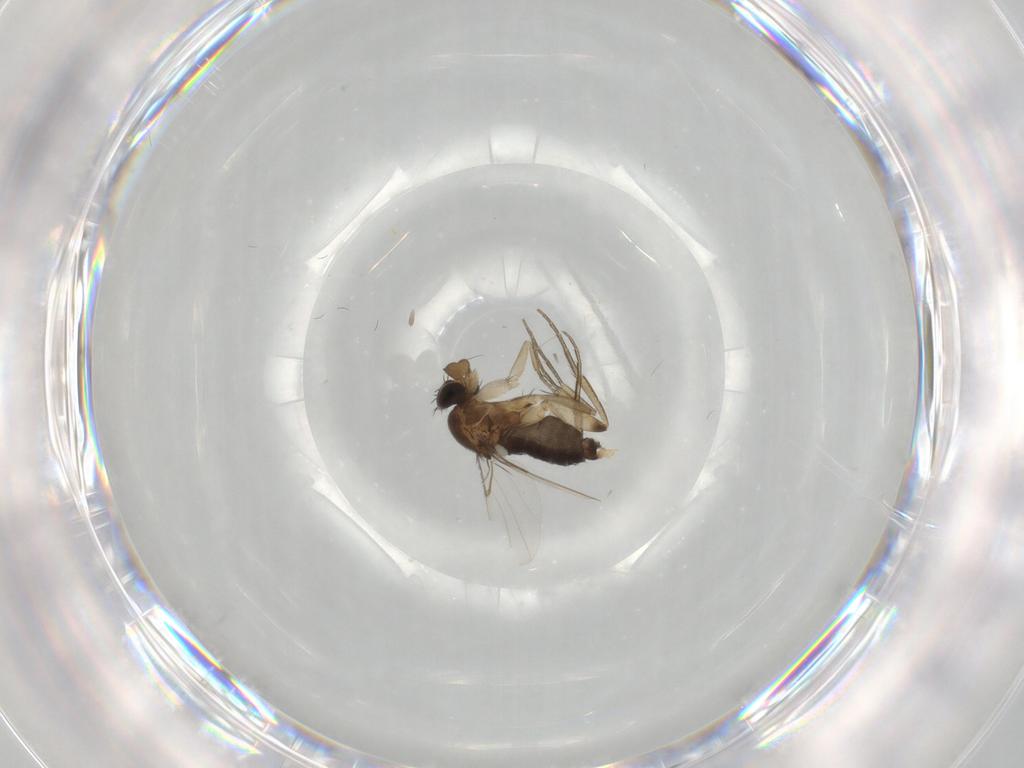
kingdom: Animalia
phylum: Arthropoda
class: Insecta
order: Diptera
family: Phoridae
